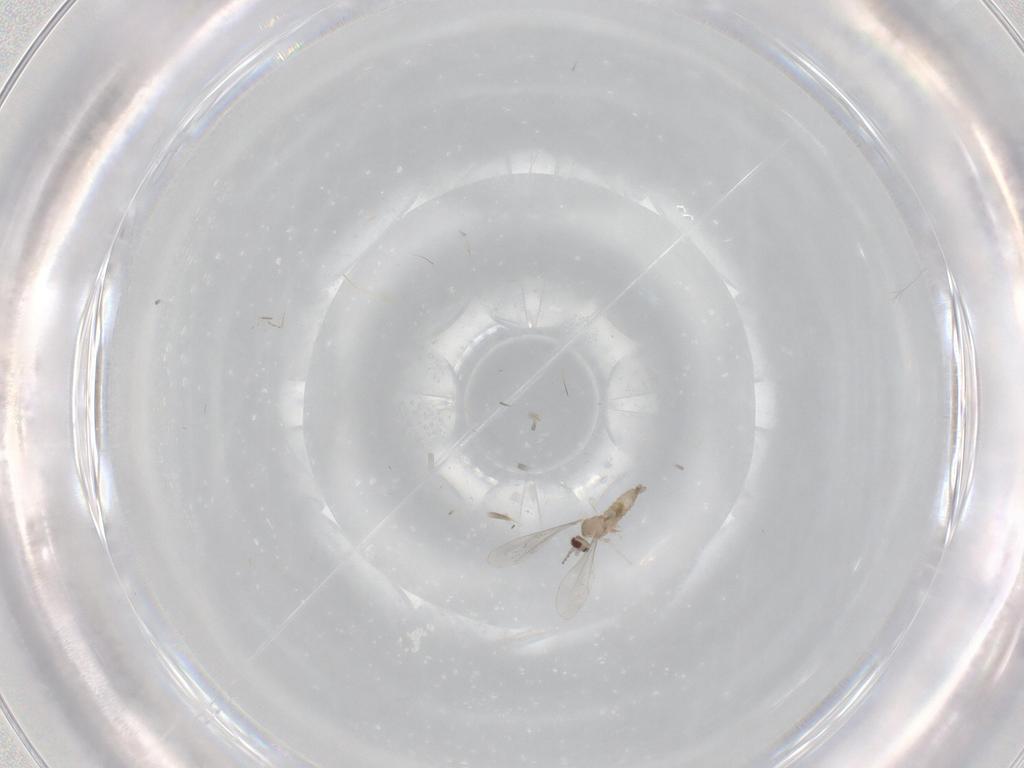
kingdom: Animalia
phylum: Arthropoda
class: Insecta
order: Diptera
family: Cecidomyiidae
